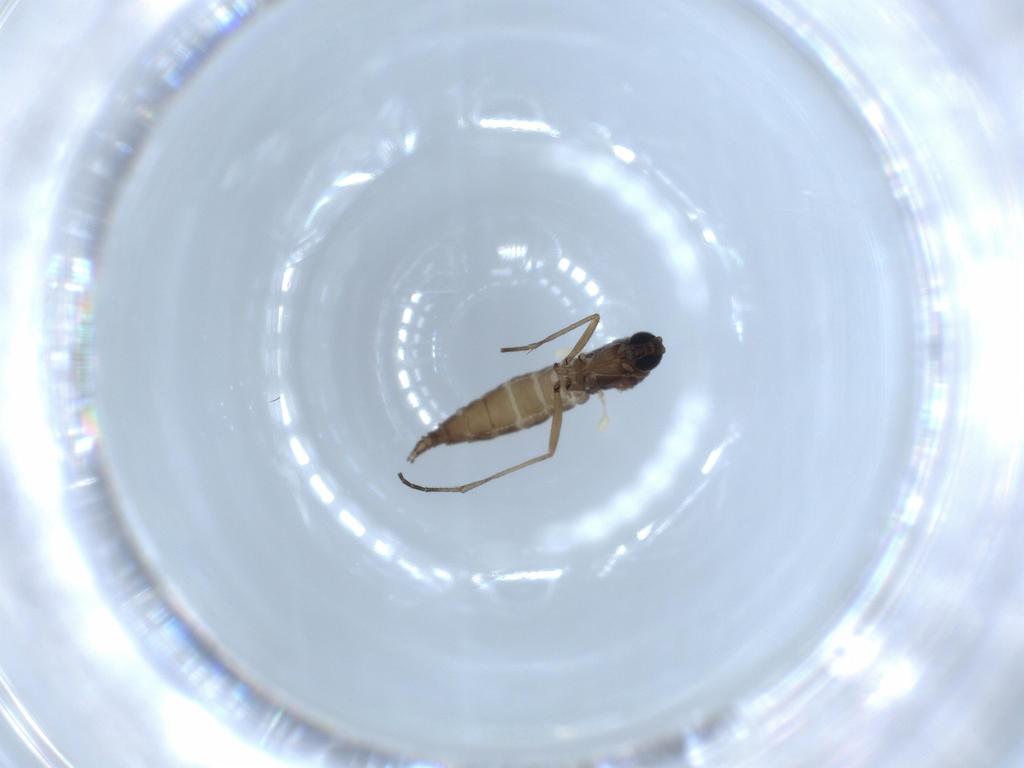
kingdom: Animalia
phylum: Arthropoda
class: Insecta
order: Diptera
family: Sciaridae
